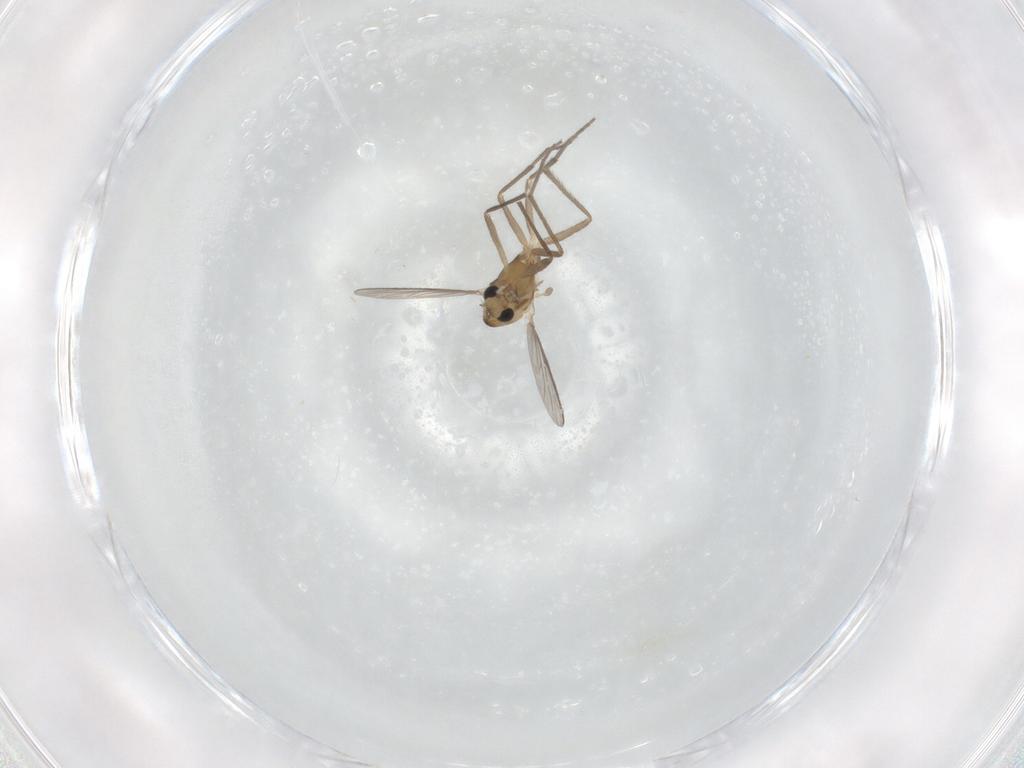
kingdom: Animalia
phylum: Arthropoda
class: Insecta
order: Diptera
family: Chironomidae
